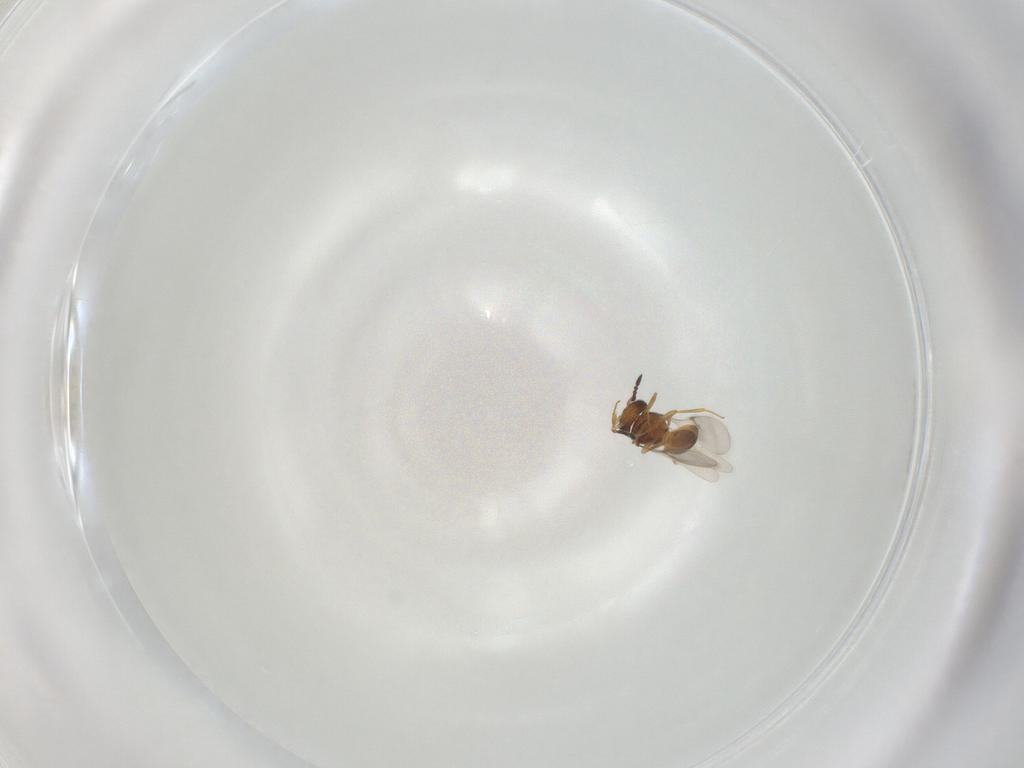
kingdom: Animalia
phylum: Arthropoda
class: Insecta
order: Hymenoptera
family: Scelionidae
